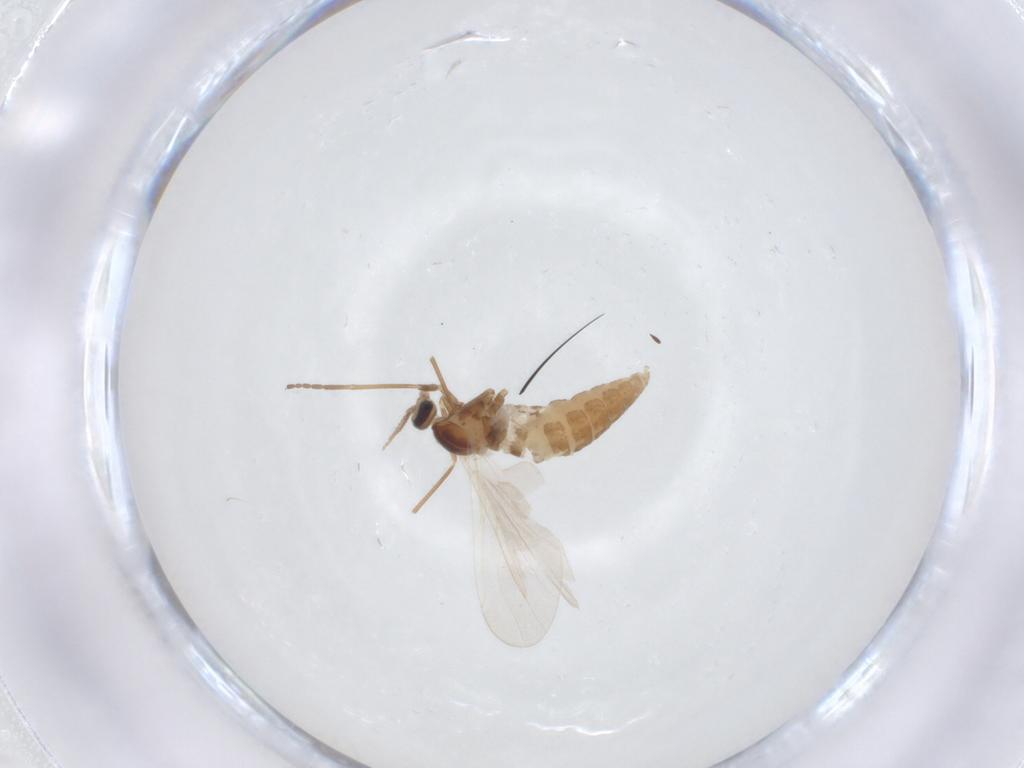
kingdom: Animalia
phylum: Arthropoda
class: Insecta
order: Diptera
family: Cecidomyiidae
